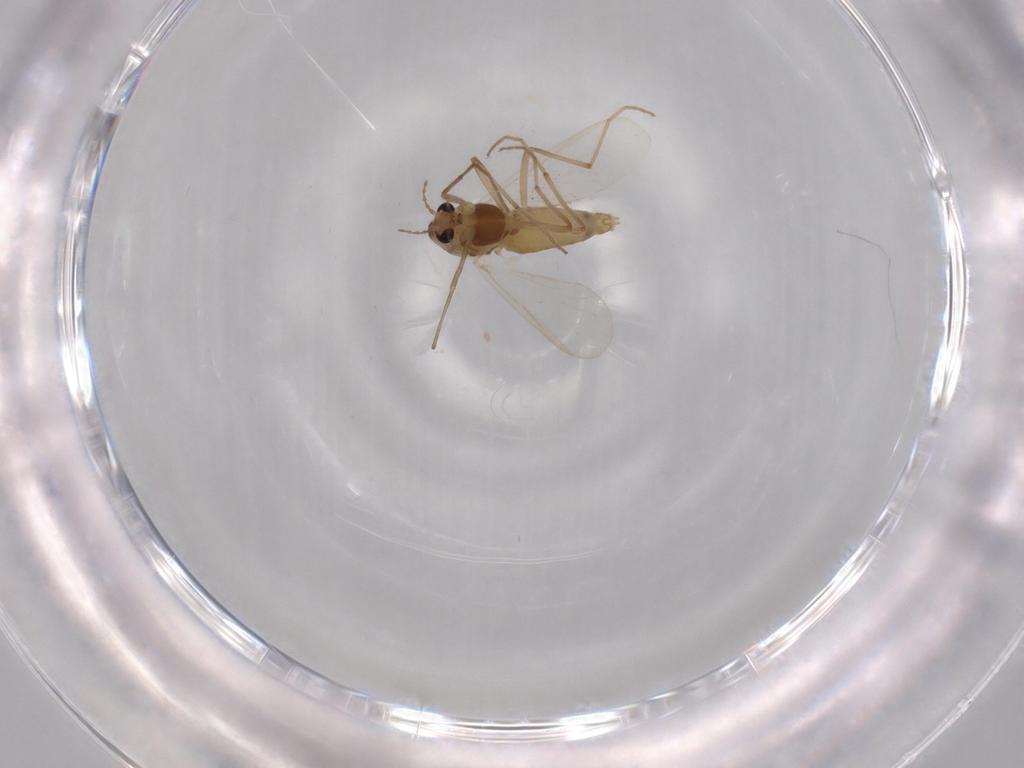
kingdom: Animalia
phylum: Arthropoda
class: Insecta
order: Diptera
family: Chironomidae
